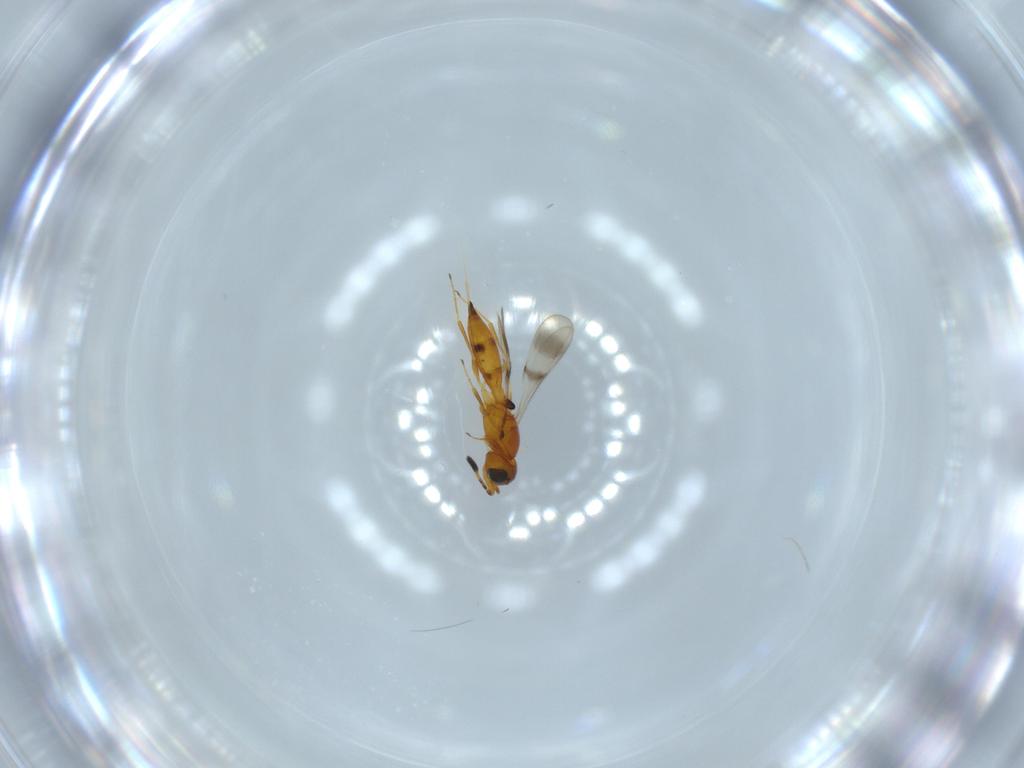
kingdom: Animalia
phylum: Arthropoda
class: Insecta
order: Hymenoptera
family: Scelionidae
